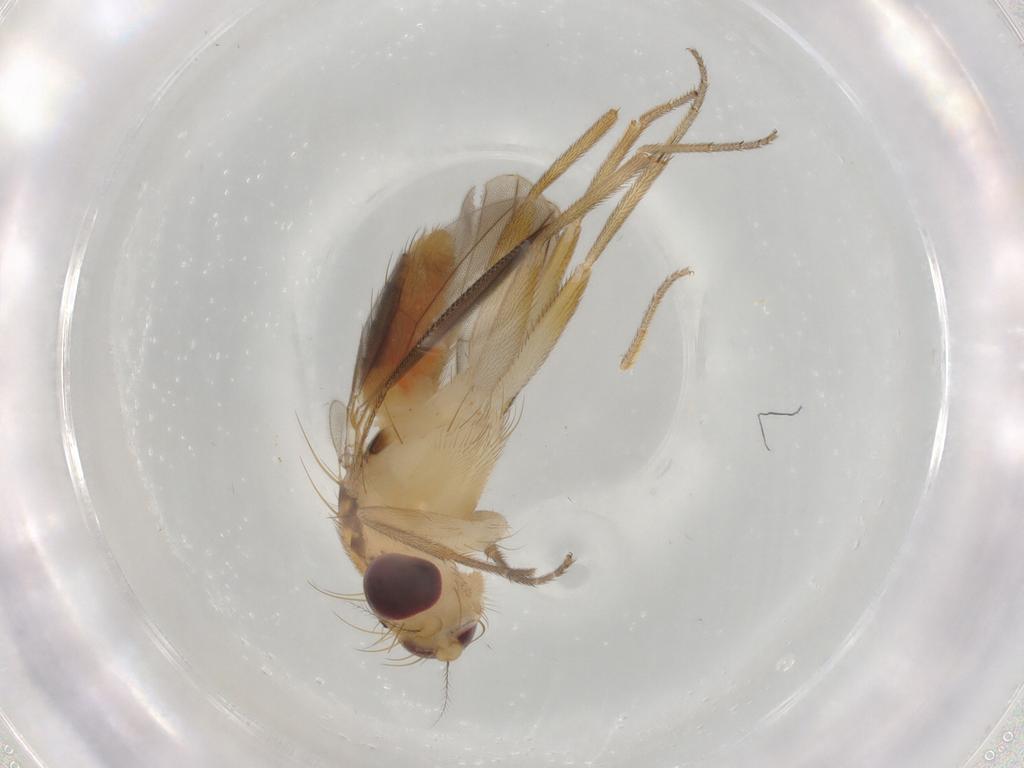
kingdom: Animalia
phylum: Arthropoda
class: Insecta
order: Diptera
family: Agromyzidae
